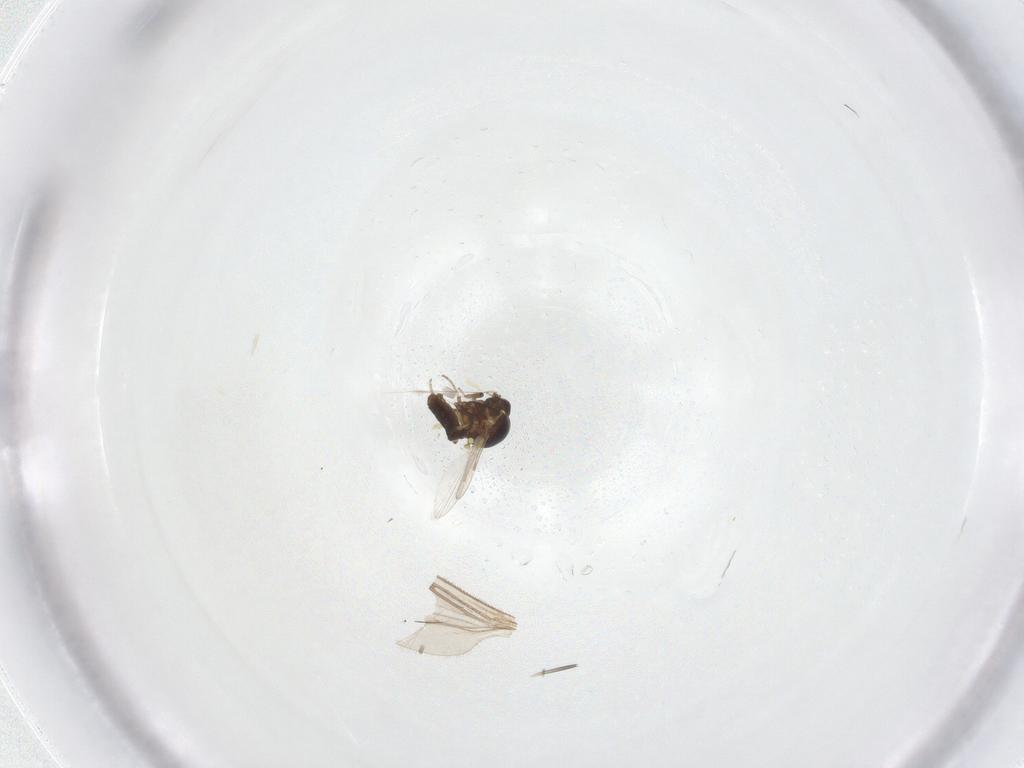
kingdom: Animalia
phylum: Arthropoda
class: Insecta
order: Diptera
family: Ceratopogonidae
